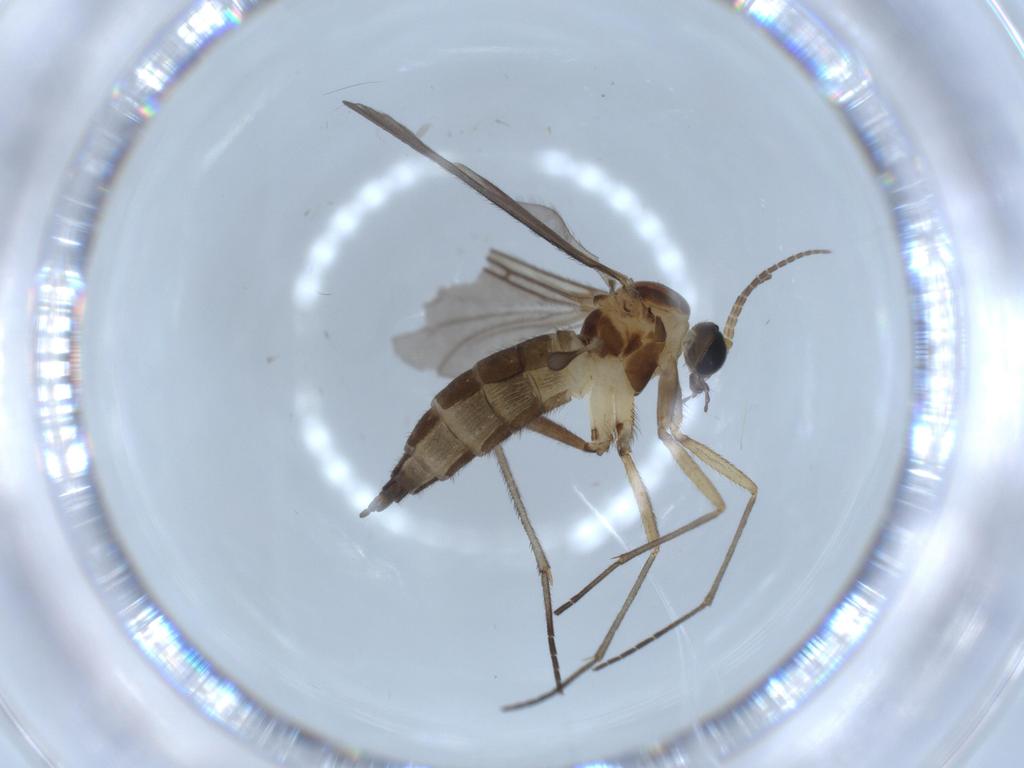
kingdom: Animalia
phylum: Arthropoda
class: Insecta
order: Diptera
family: Sciaridae
